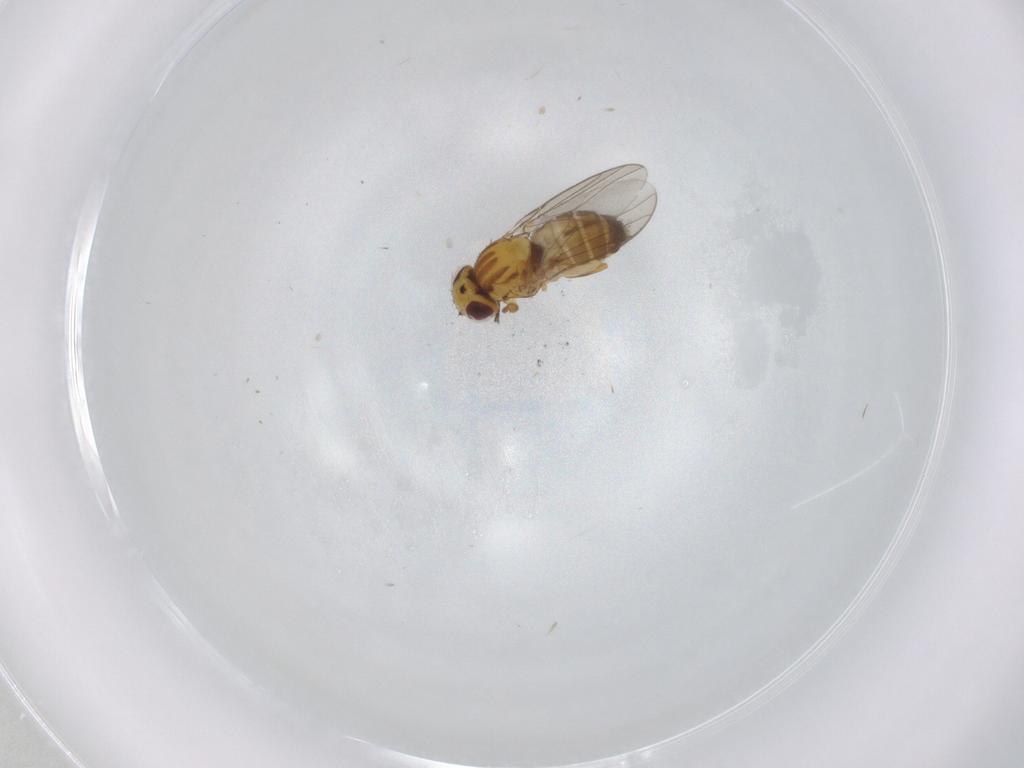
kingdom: Animalia
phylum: Arthropoda
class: Insecta
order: Diptera
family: Chloropidae
